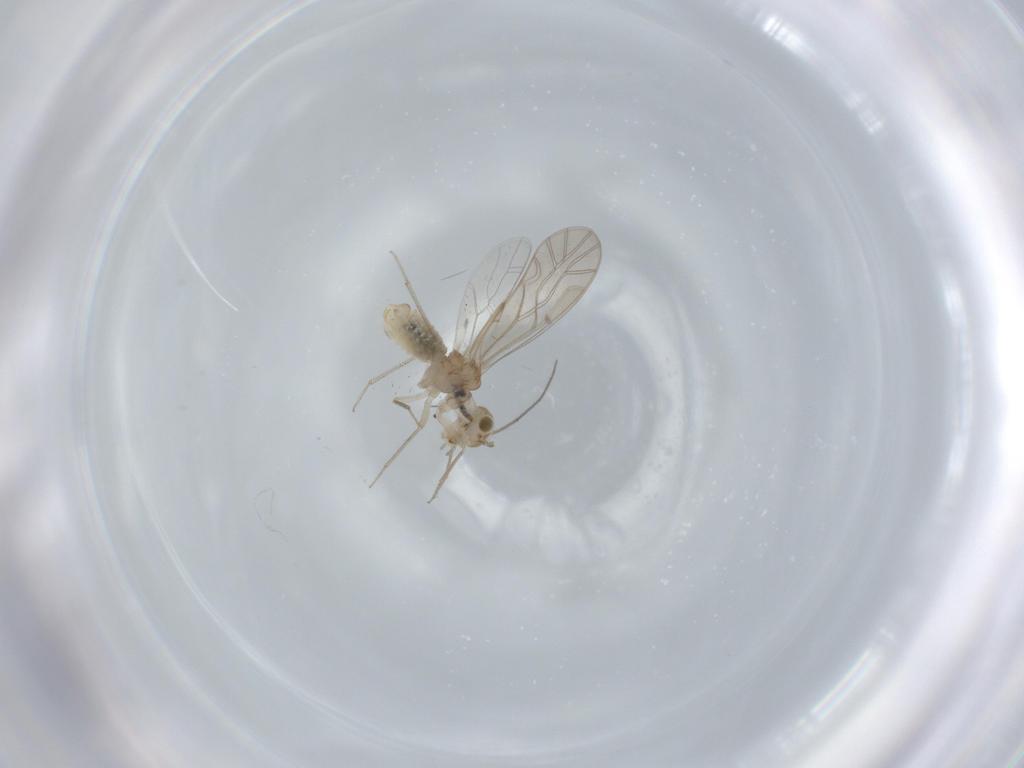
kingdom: Animalia
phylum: Arthropoda
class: Insecta
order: Psocodea
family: Lachesillidae
